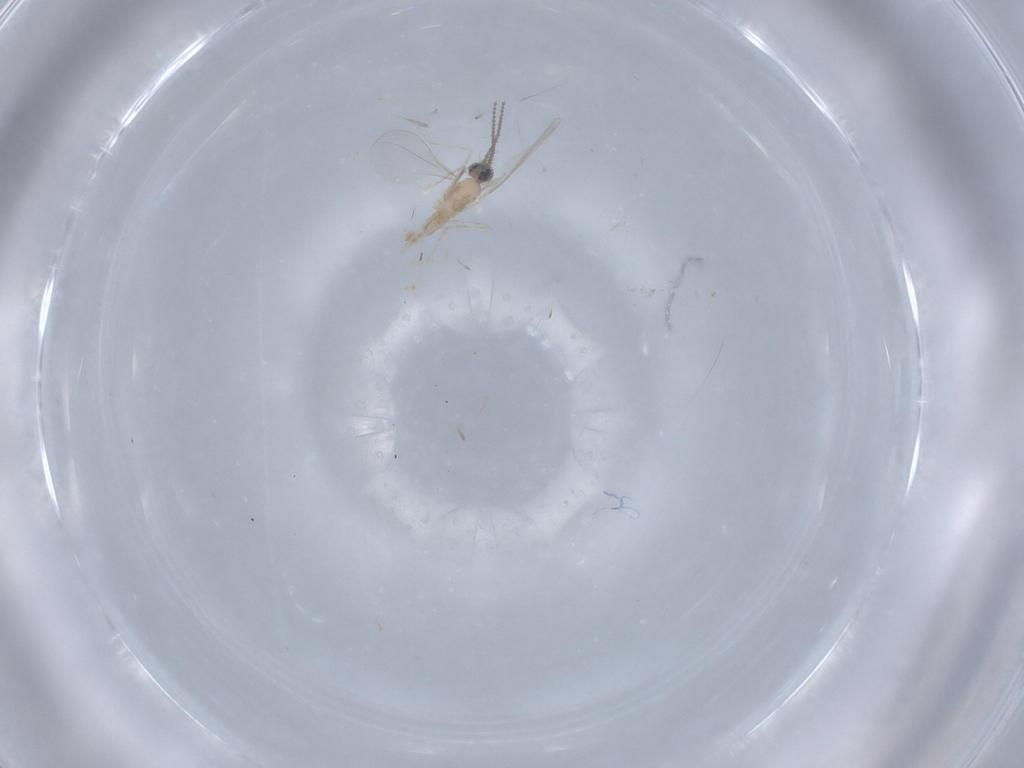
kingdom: Animalia
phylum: Arthropoda
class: Insecta
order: Diptera
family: Cecidomyiidae
